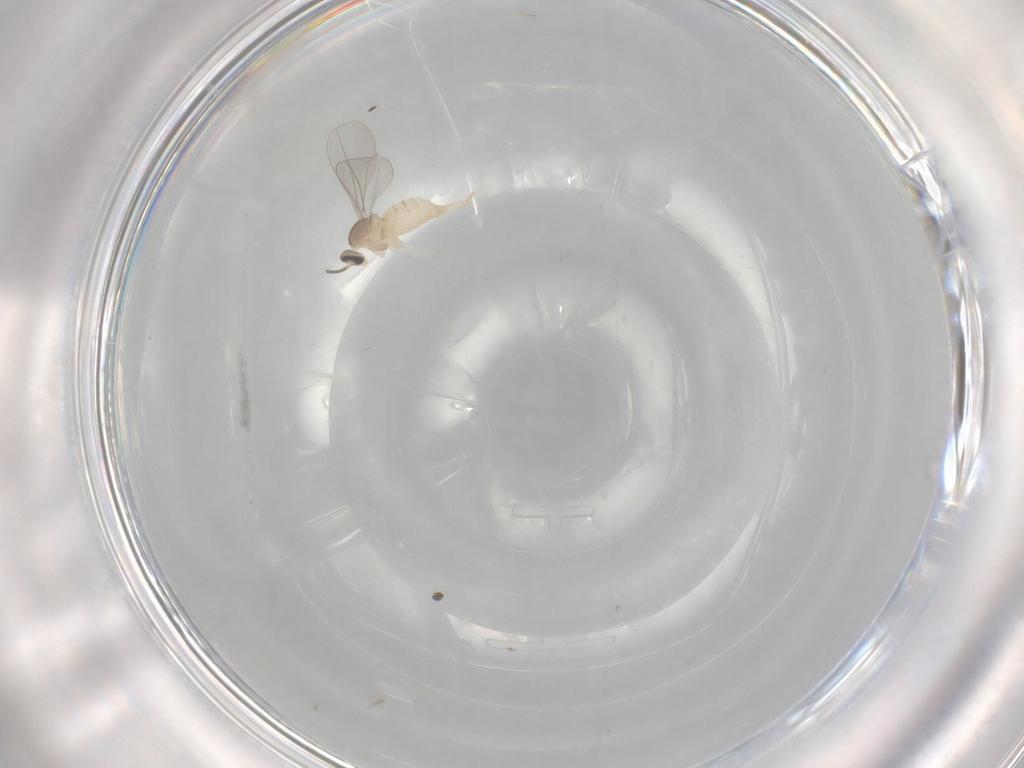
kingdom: Animalia
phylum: Arthropoda
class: Insecta
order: Diptera
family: Cecidomyiidae
